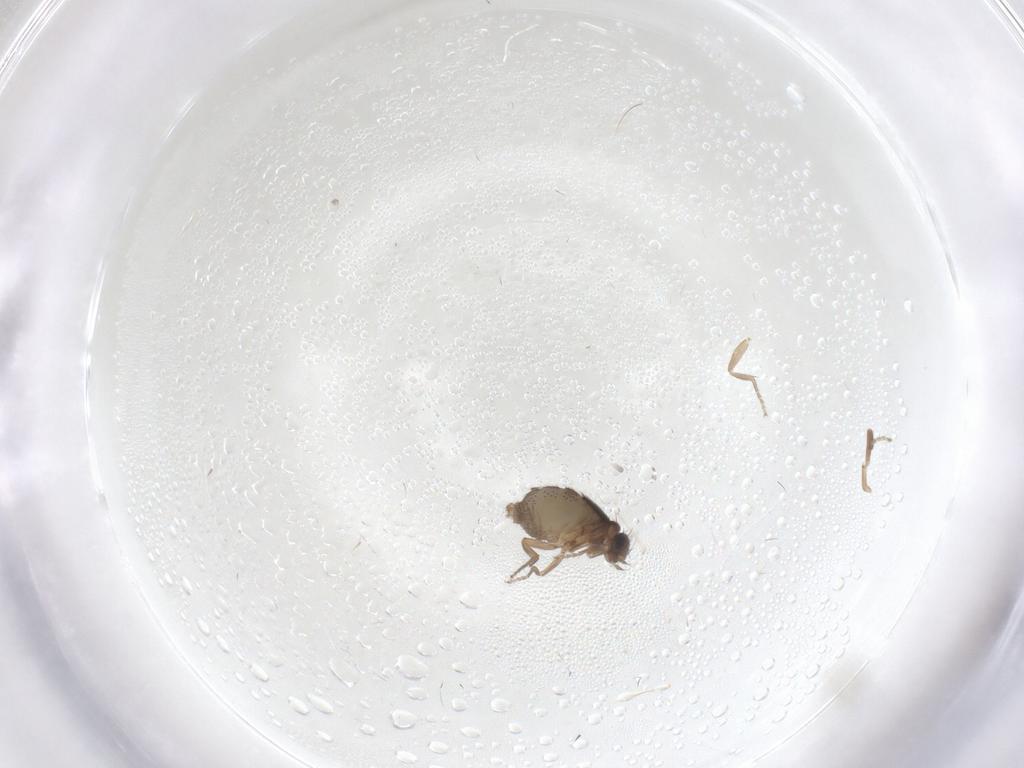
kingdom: Animalia
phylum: Arthropoda
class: Insecta
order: Diptera
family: Phoridae
